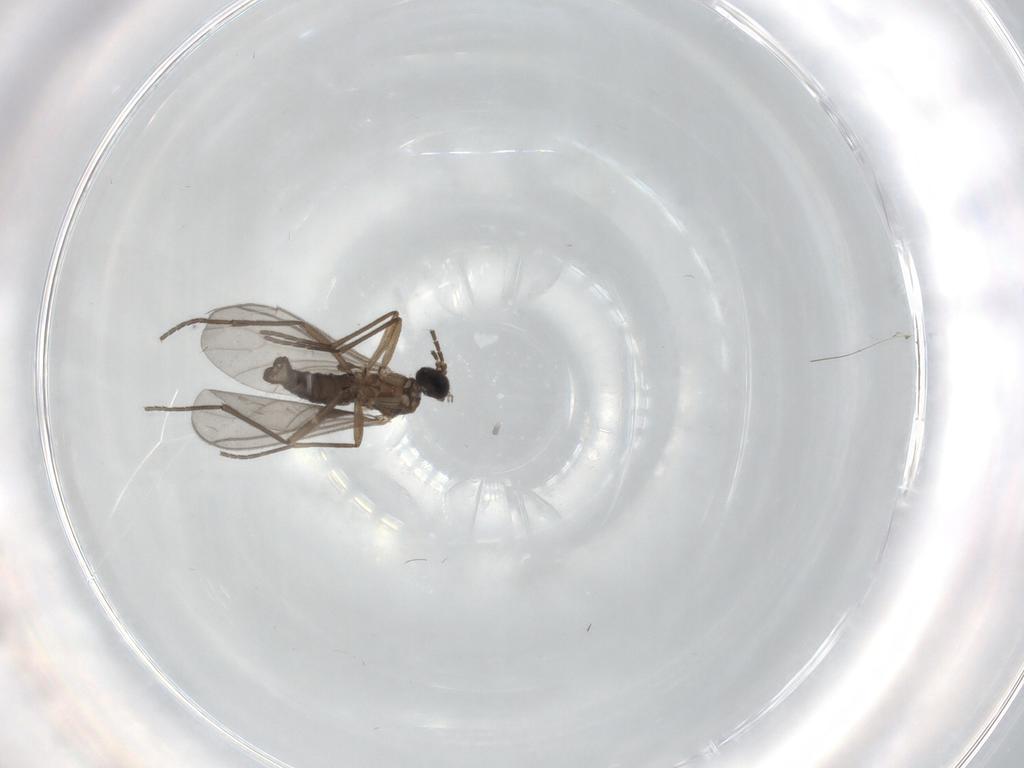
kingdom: Animalia
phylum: Arthropoda
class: Insecta
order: Diptera
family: Sciaridae
